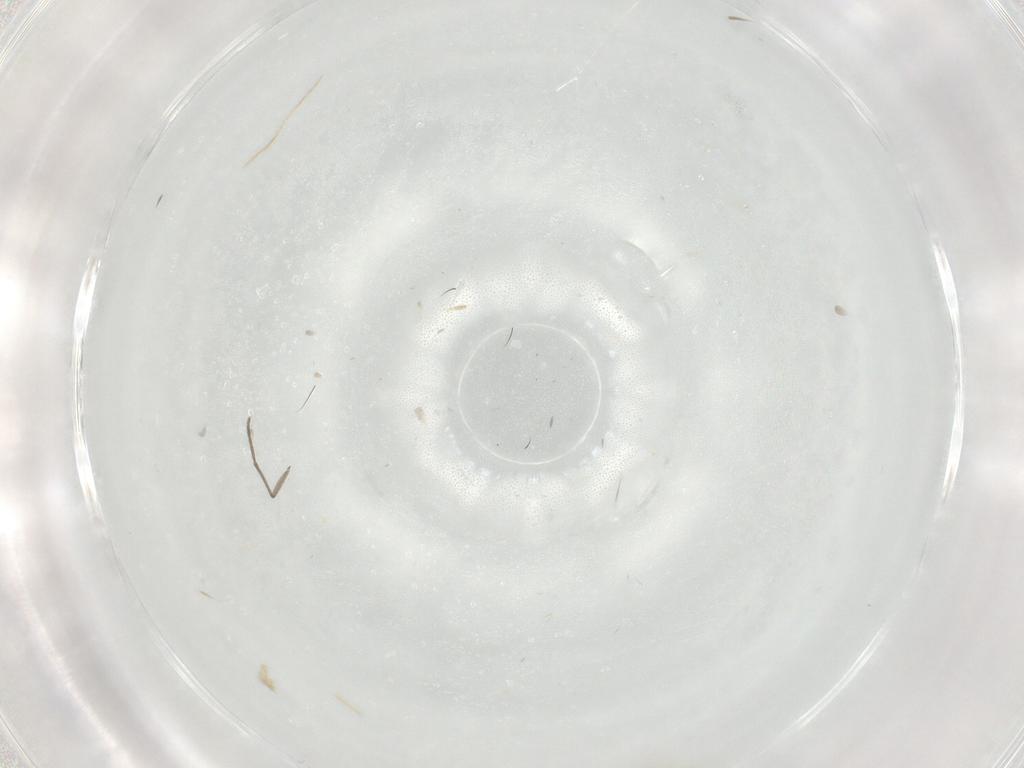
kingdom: Animalia
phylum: Arthropoda
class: Insecta
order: Diptera
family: Cecidomyiidae
